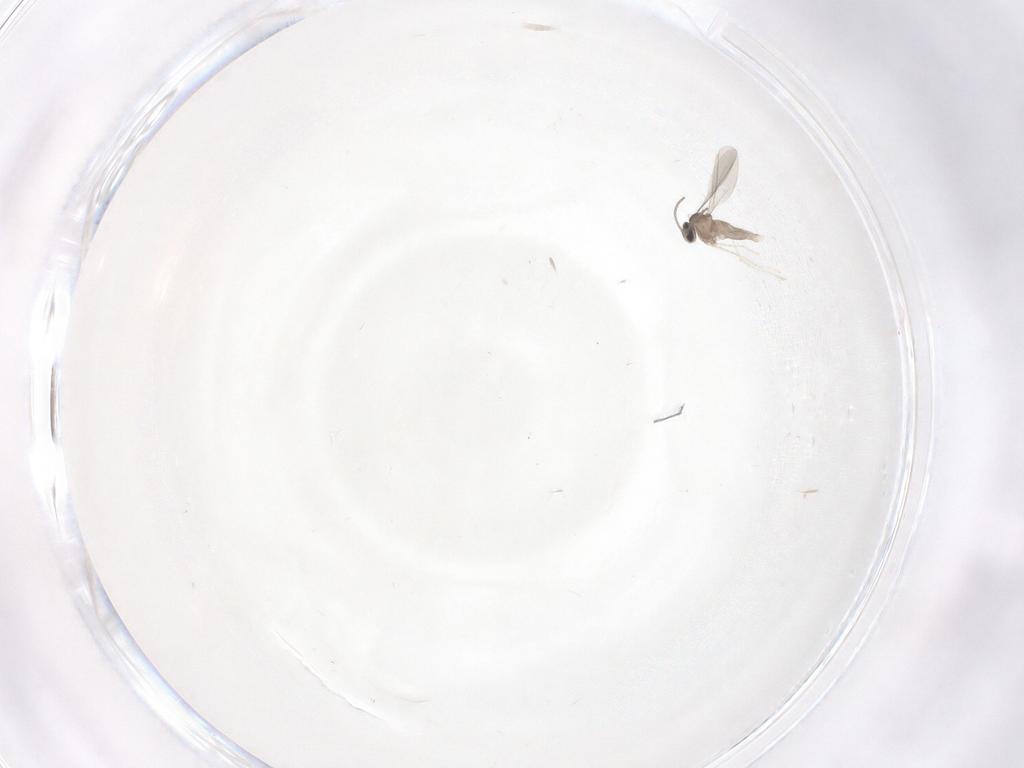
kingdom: Animalia
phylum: Arthropoda
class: Insecta
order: Diptera
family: Cecidomyiidae
